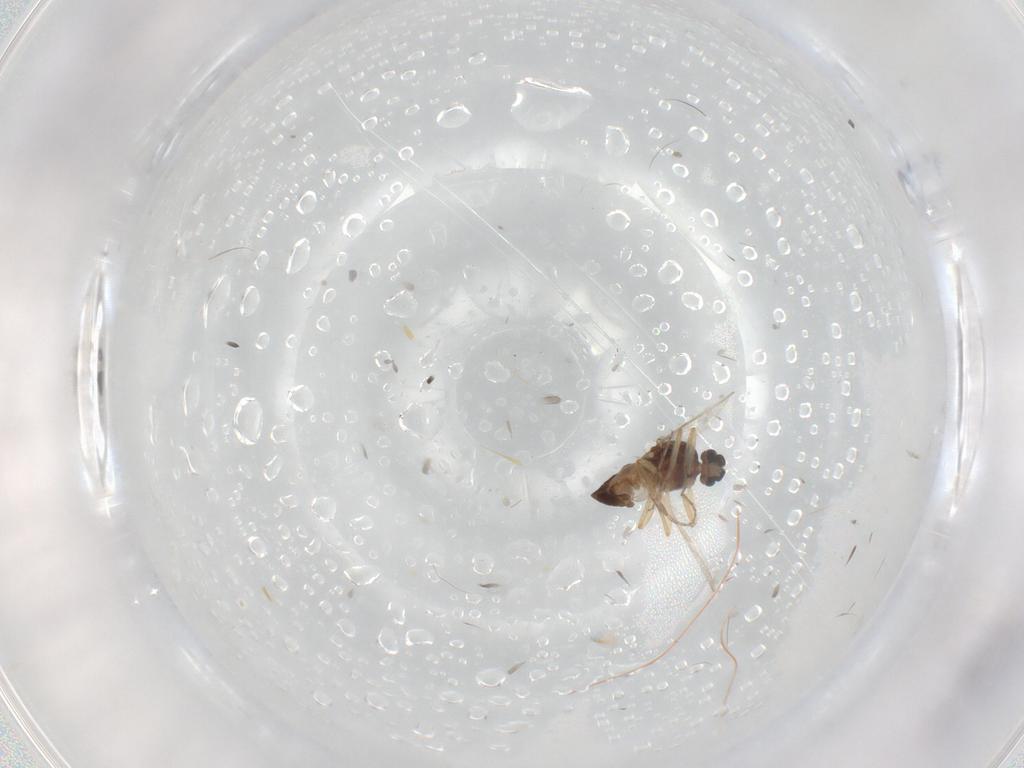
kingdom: Animalia
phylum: Arthropoda
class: Insecta
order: Diptera
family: Ceratopogonidae
